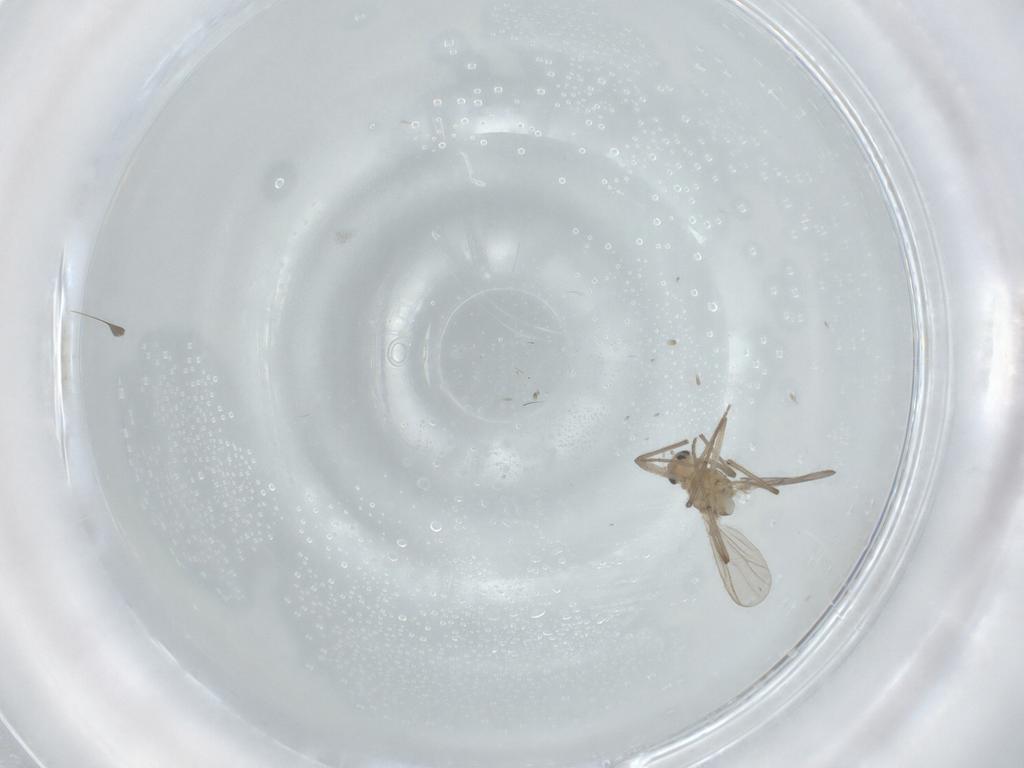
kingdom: Animalia
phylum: Arthropoda
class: Insecta
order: Diptera
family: Chironomidae
